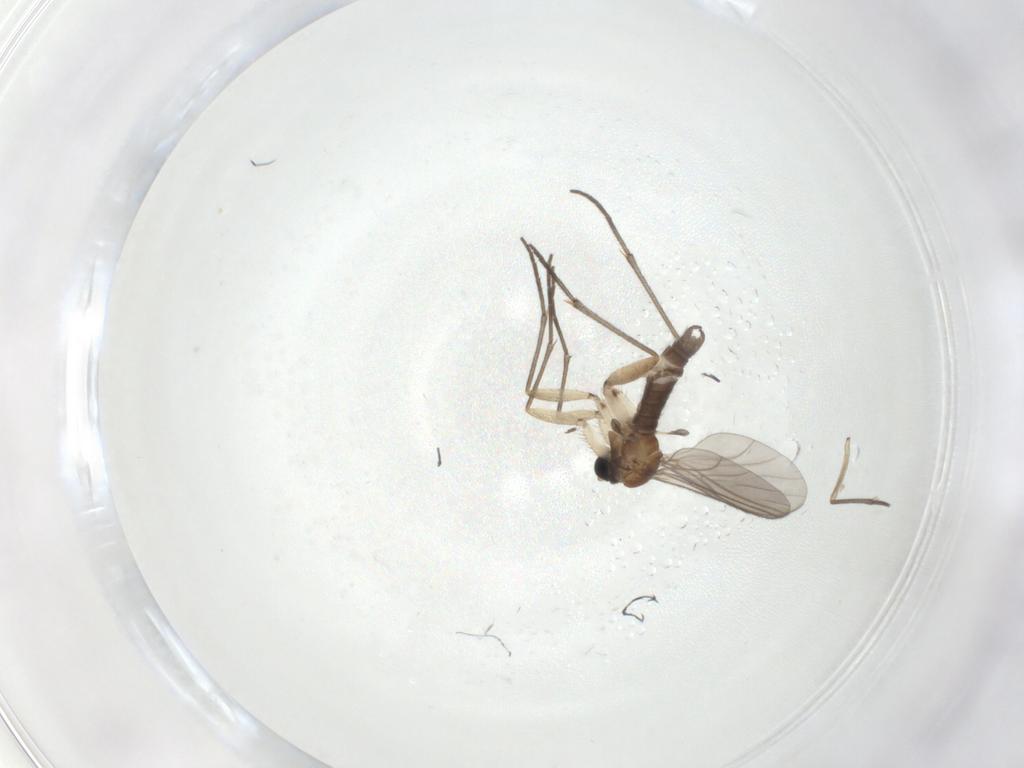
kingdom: Animalia
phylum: Arthropoda
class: Insecta
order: Diptera
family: Sciaridae
